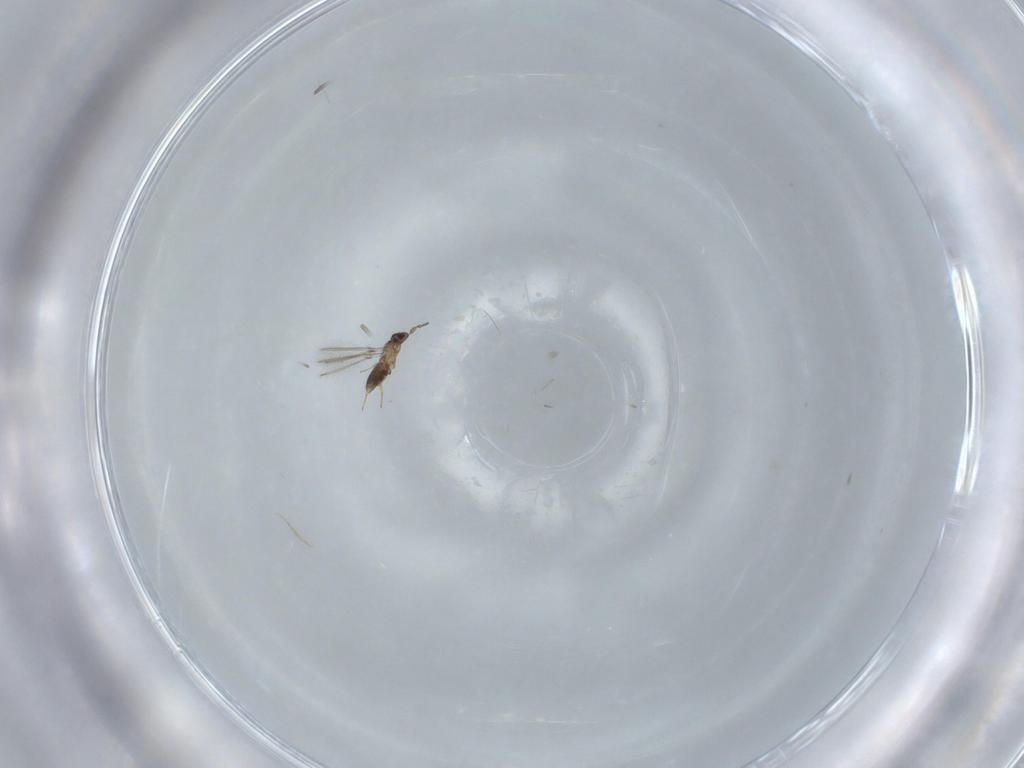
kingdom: Animalia
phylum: Arthropoda
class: Insecta
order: Hymenoptera
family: Mymaridae
